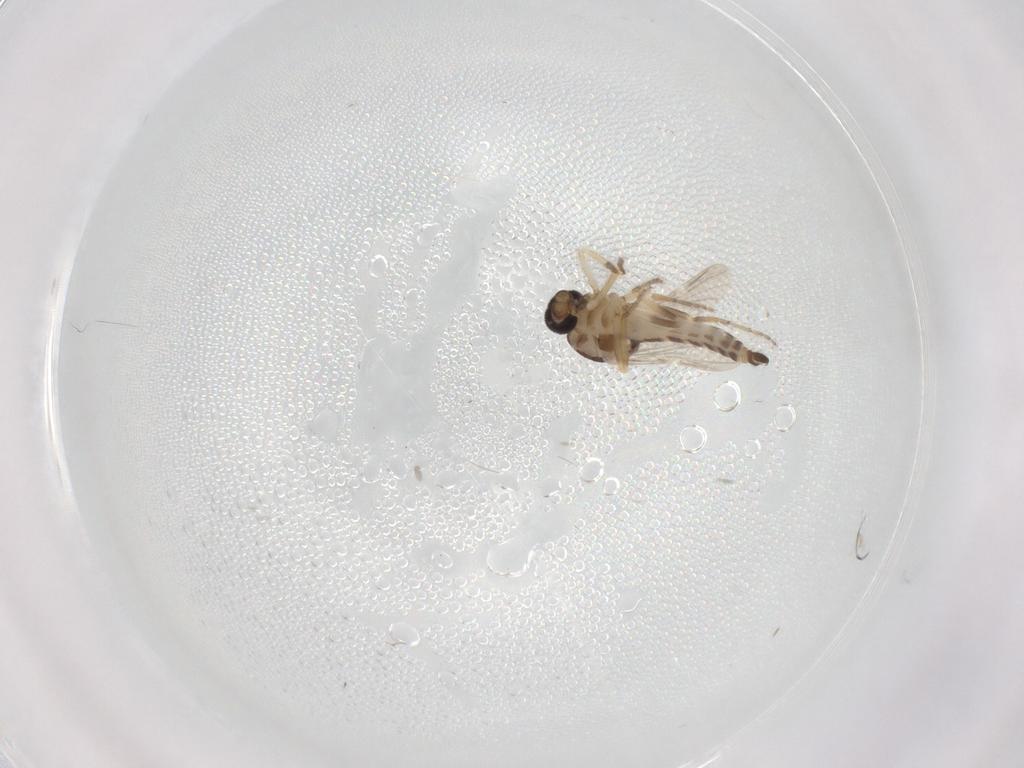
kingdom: Animalia
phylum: Arthropoda
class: Insecta
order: Diptera
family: Ceratopogonidae
